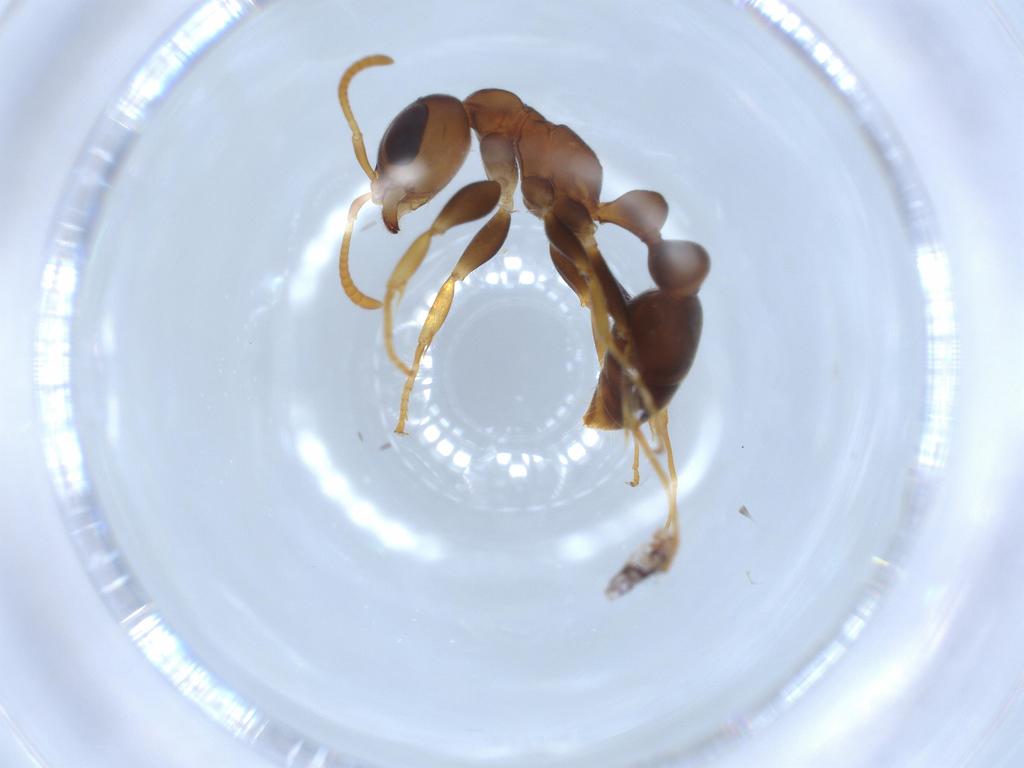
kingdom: Animalia
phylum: Arthropoda
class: Insecta
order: Hymenoptera
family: Formicidae
